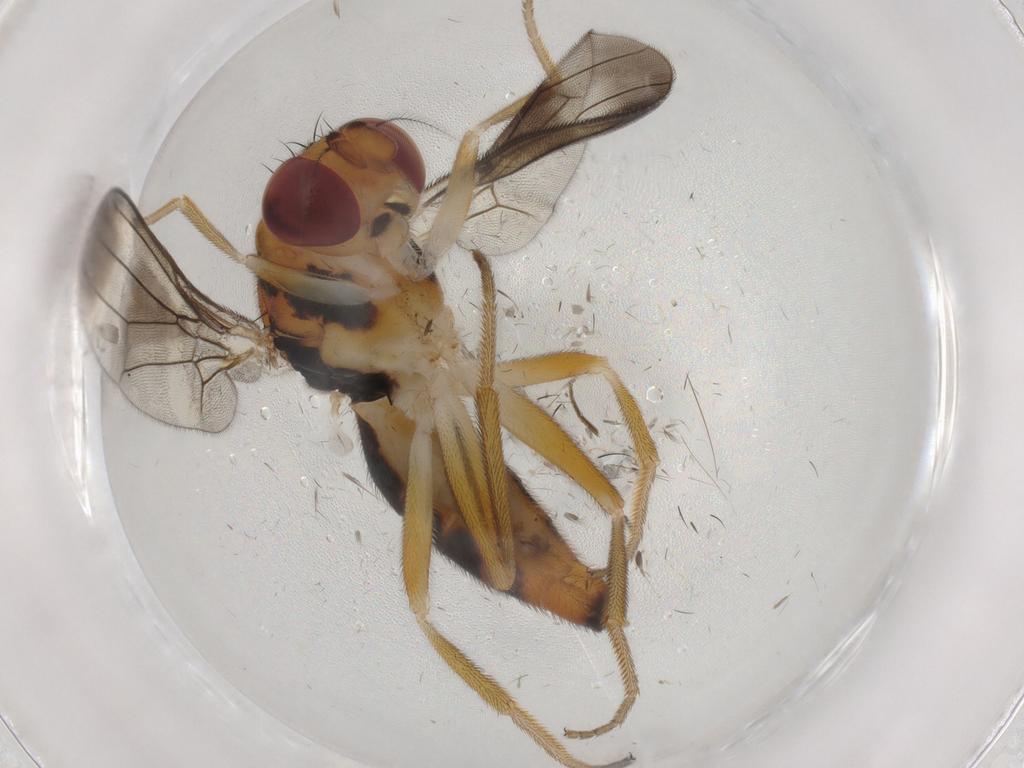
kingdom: Animalia
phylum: Arthropoda
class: Insecta
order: Diptera
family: Psilidae
